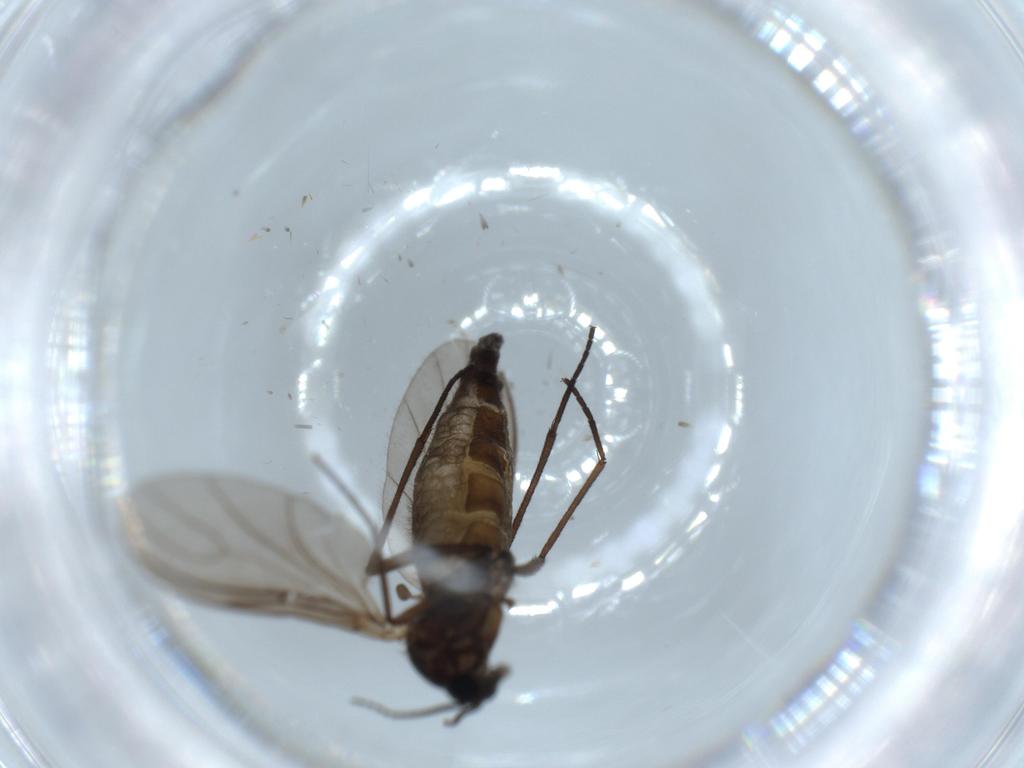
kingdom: Animalia
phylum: Arthropoda
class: Insecta
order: Diptera
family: Sciaridae
